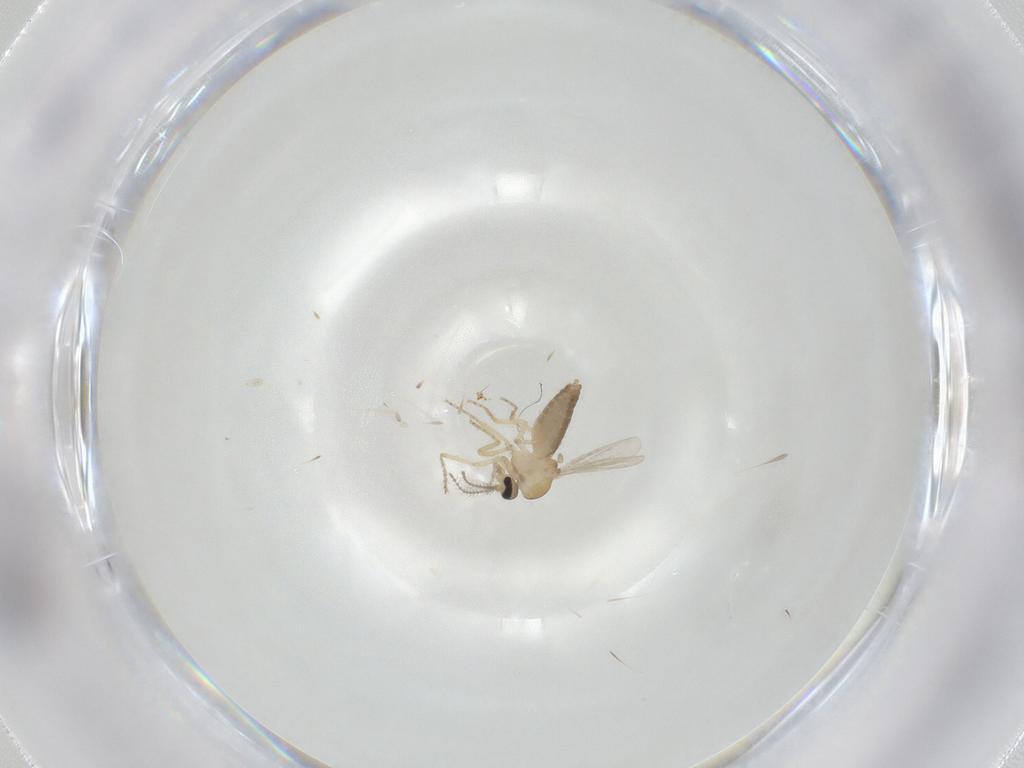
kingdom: Animalia
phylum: Arthropoda
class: Insecta
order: Diptera
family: Ceratopogonidae
